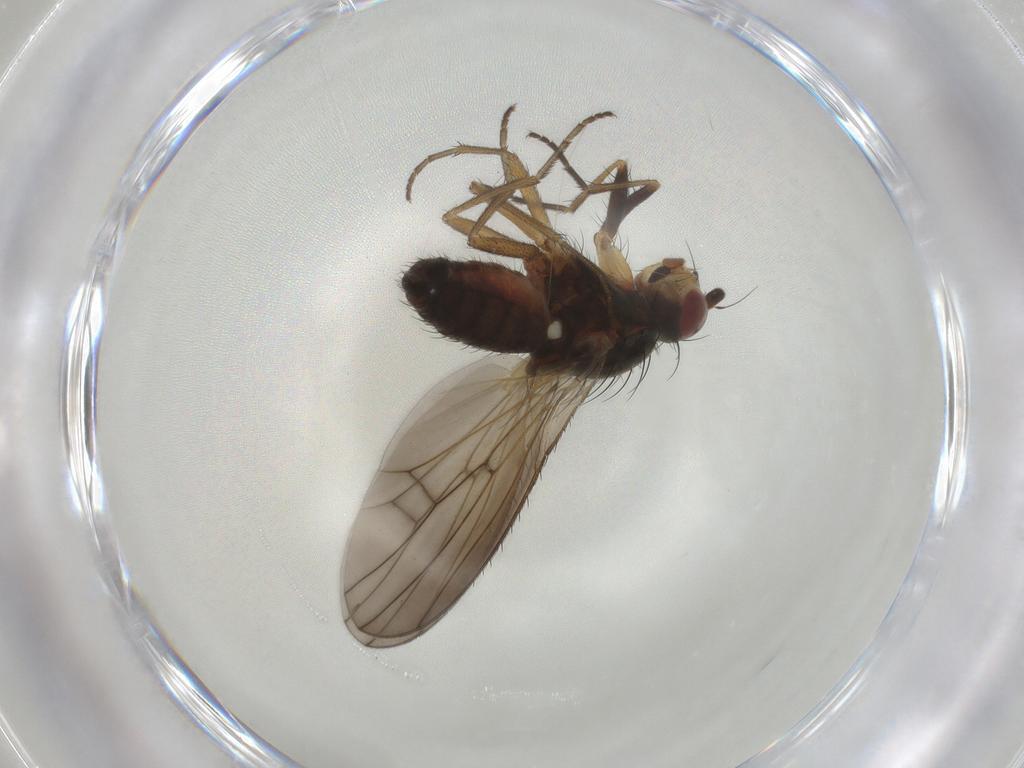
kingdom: Animalia
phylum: Arthropoda
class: Insecta
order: Diptera
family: Heleomyzidae
